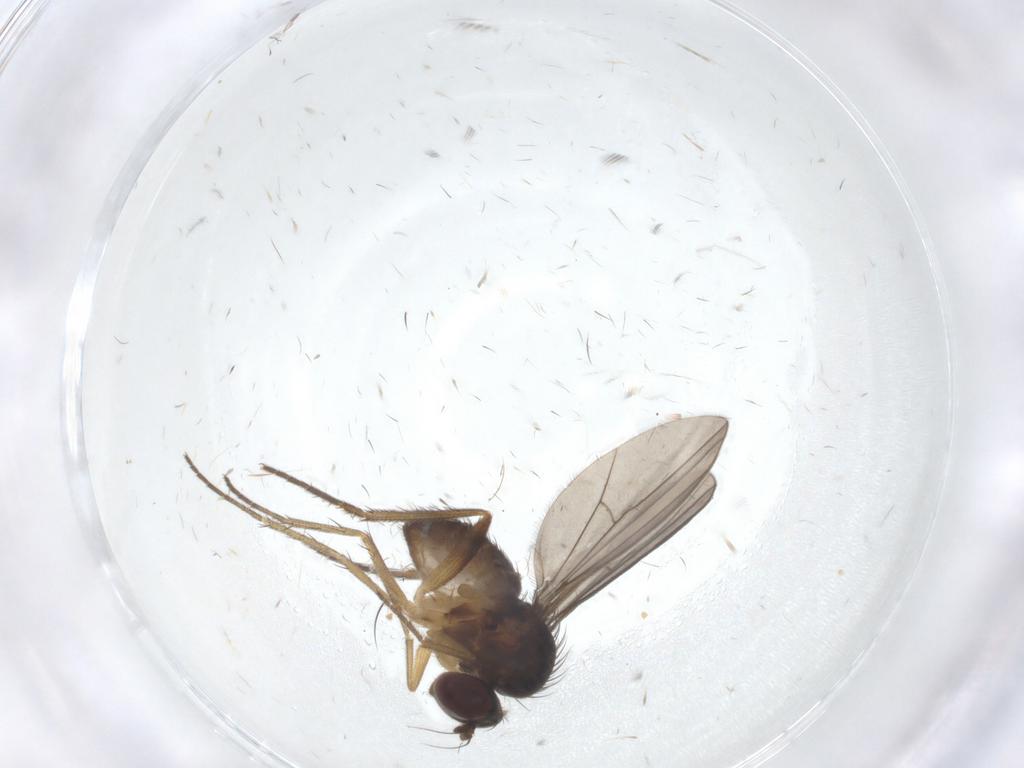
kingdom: Animalia
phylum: Arthropoda
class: Insecta
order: Diptera
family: Dolichopodidae
